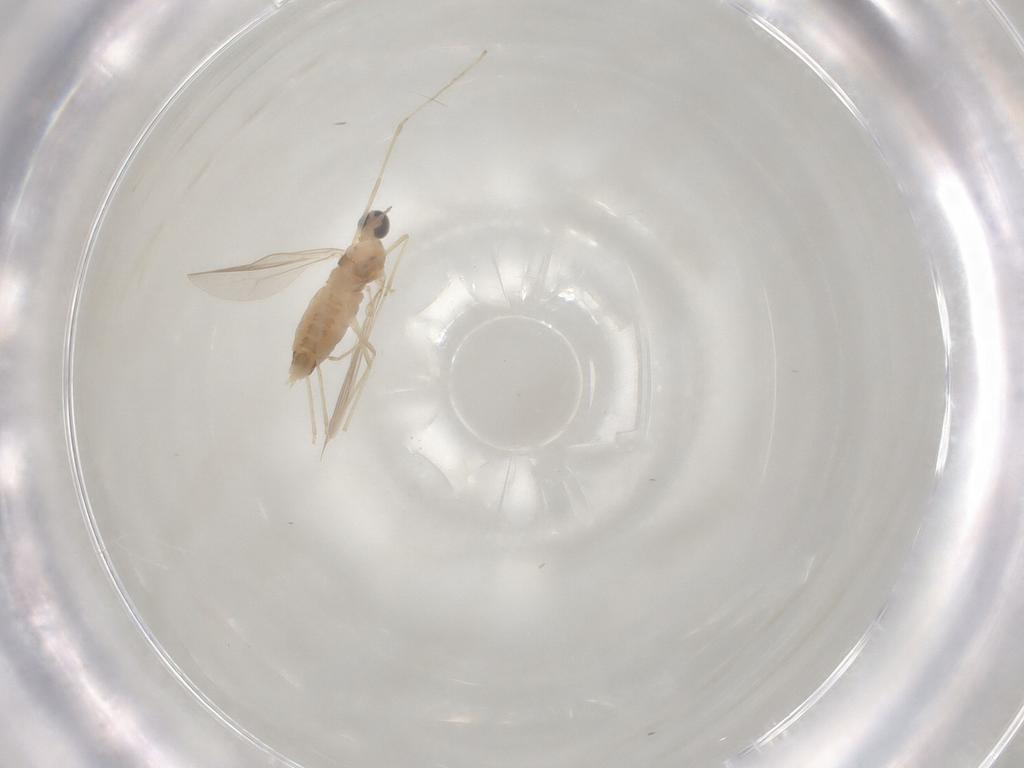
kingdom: Animalia
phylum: Arthropoda
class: Insecta
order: Diptera
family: Cecidomyiidae
